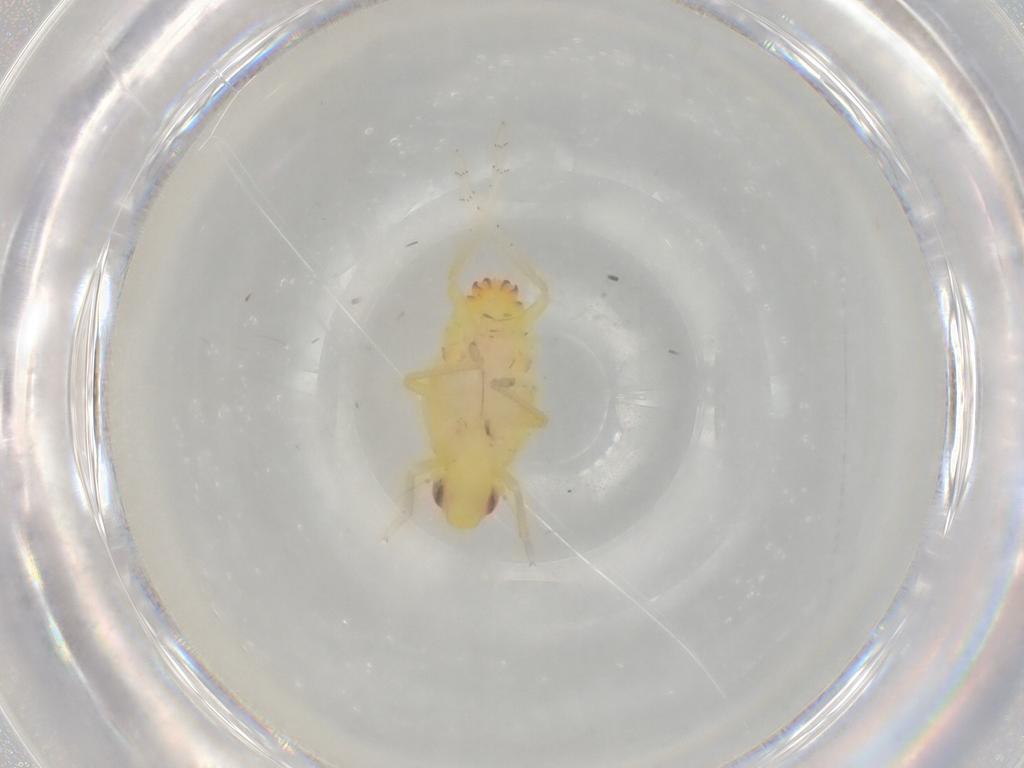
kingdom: Animalia
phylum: Arthropoda
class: Insecta
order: Hemiptera
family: Tropiduchidae
